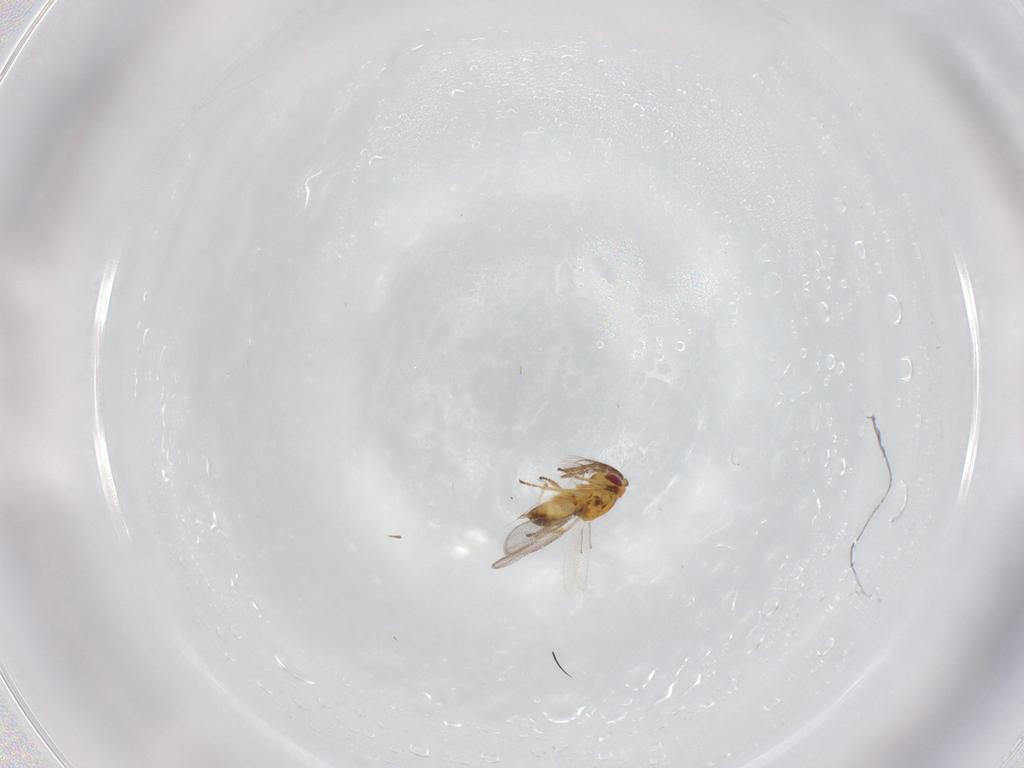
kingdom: Animalia
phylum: Arthropoda
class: Insecta
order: Hymenoptera
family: Eulophidae
